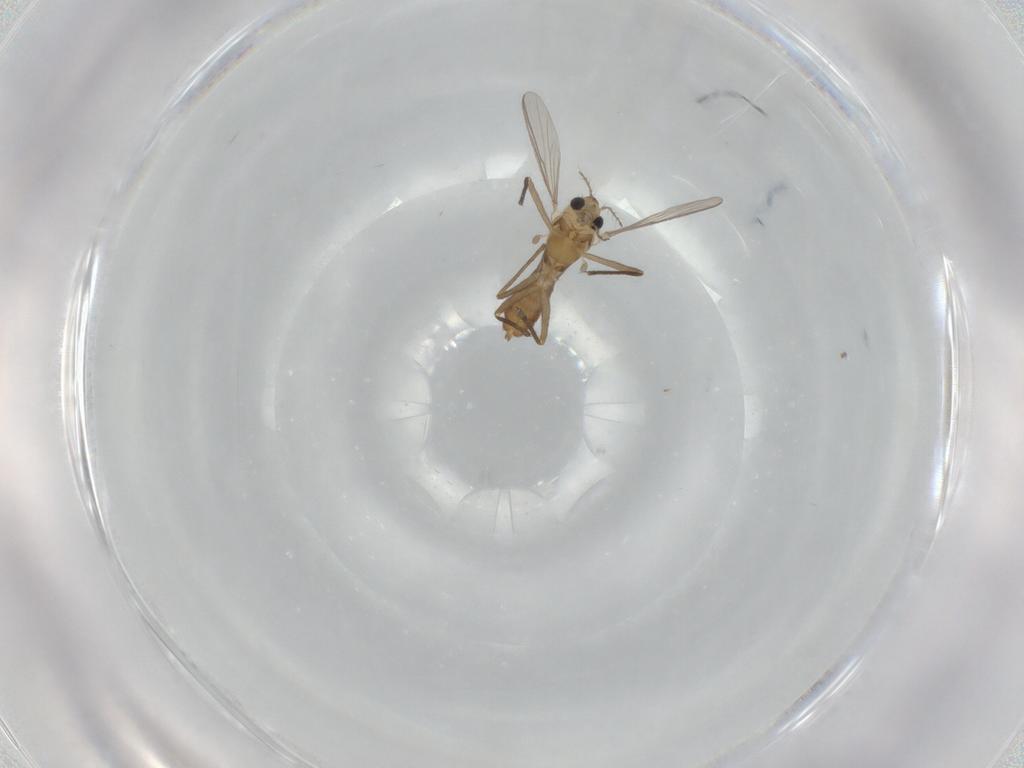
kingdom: Animalia
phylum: Arthropoda
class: Insecta
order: Diptera
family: Chironomidae
